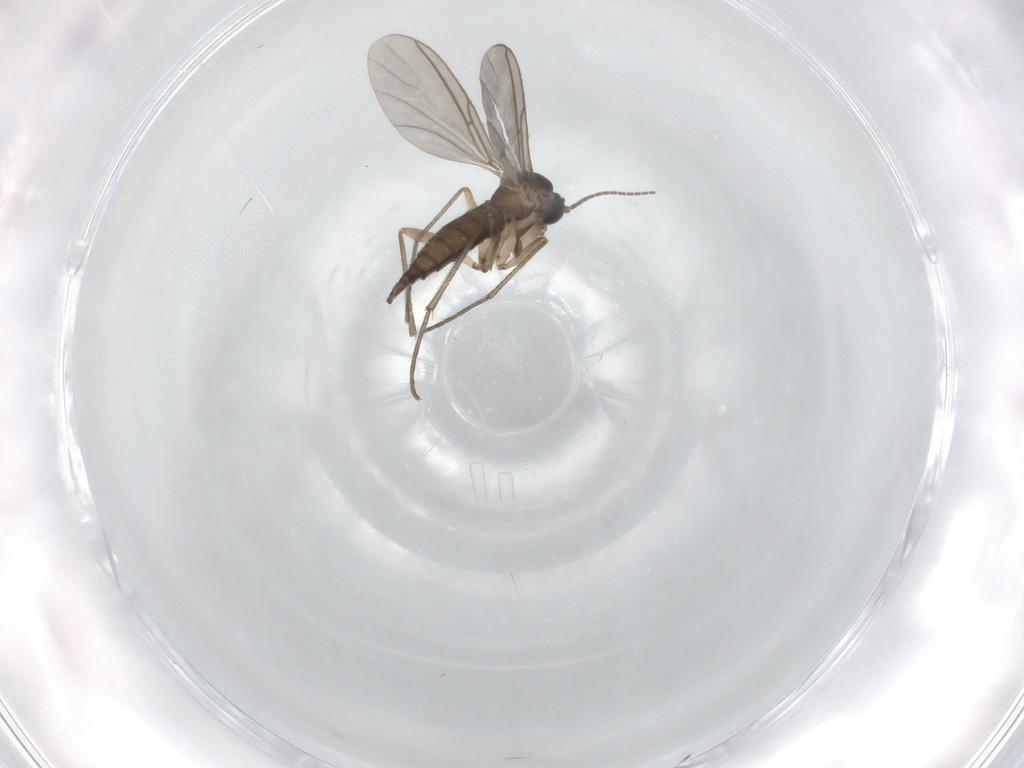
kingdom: Animalia
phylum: Arthropoda
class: Insecta
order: Diptera
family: Sciaridae
